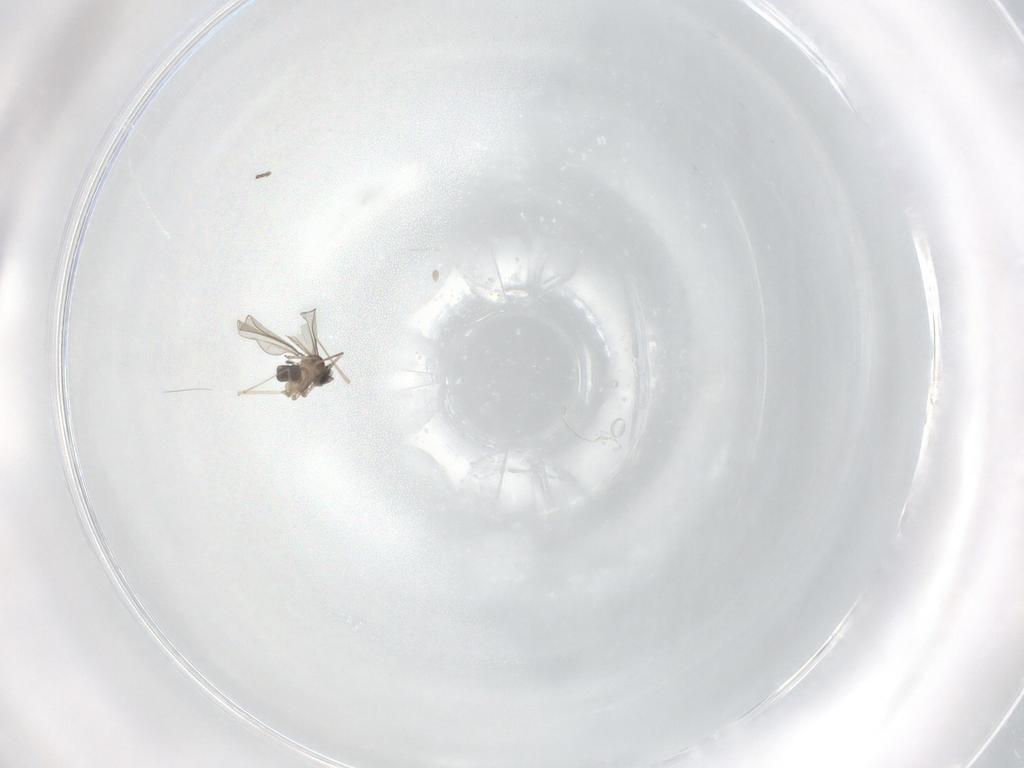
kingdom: Animalia
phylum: Arthropoda
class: Insecta
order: Diptera
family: Cecidomyiidae
